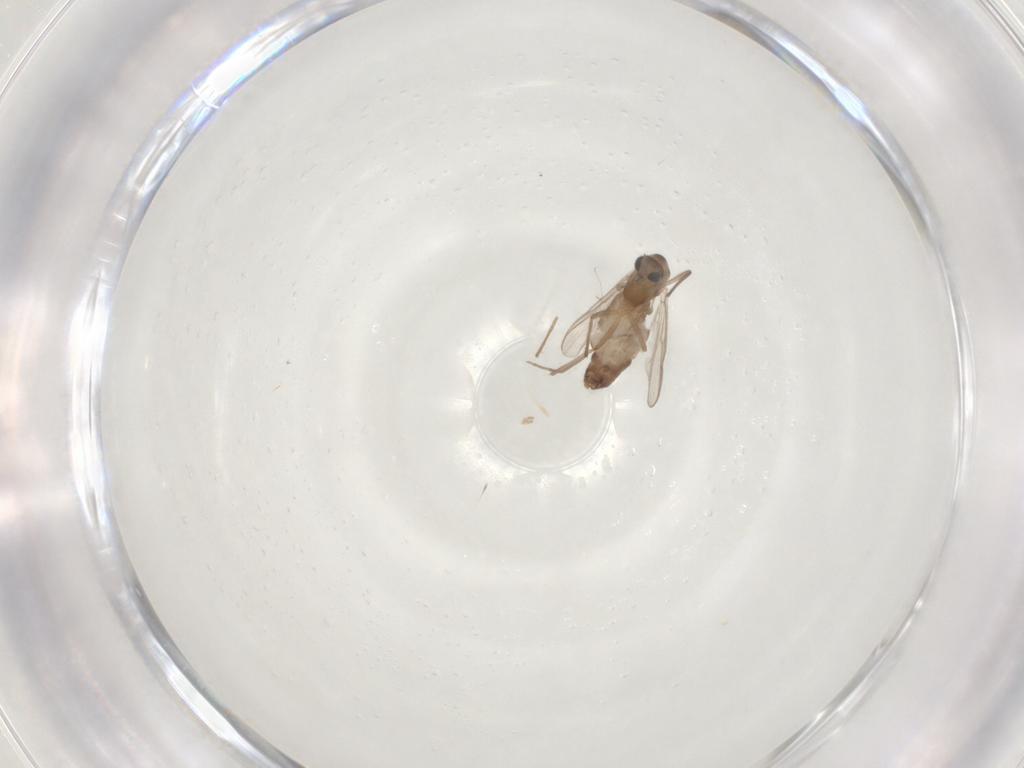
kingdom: Animalia
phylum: Arthropoda
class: Insecta
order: Diptera
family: Chironomidae
